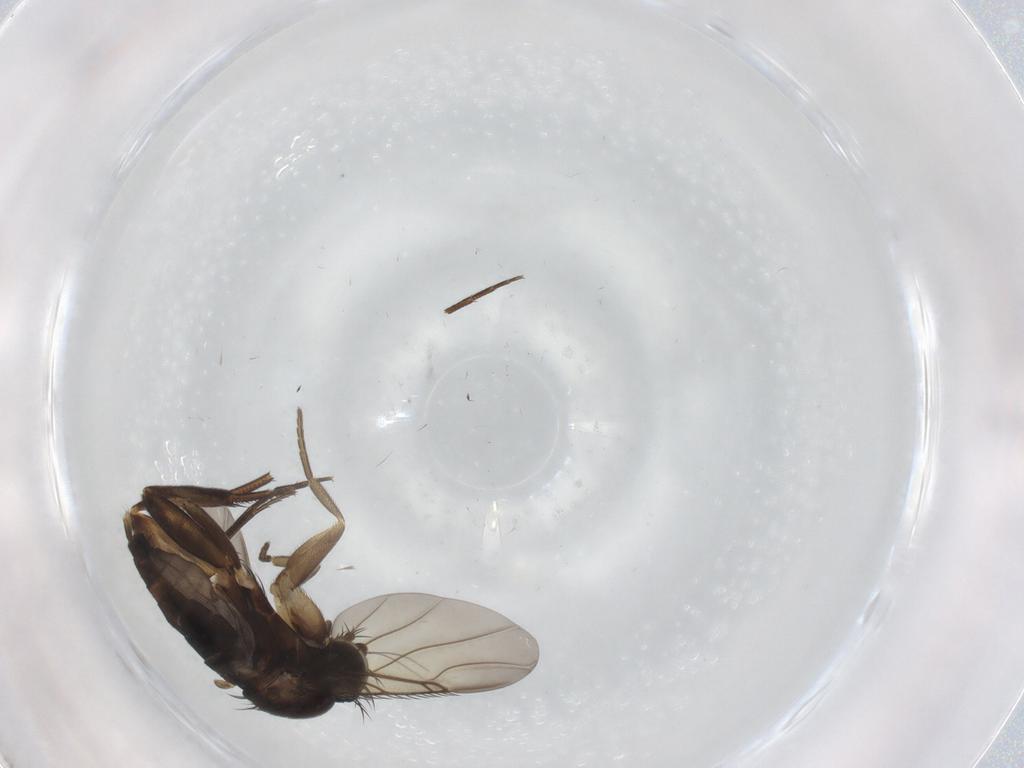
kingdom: Animalia
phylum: Arthropoda
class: Insecta
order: Diptera
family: Phoridae
